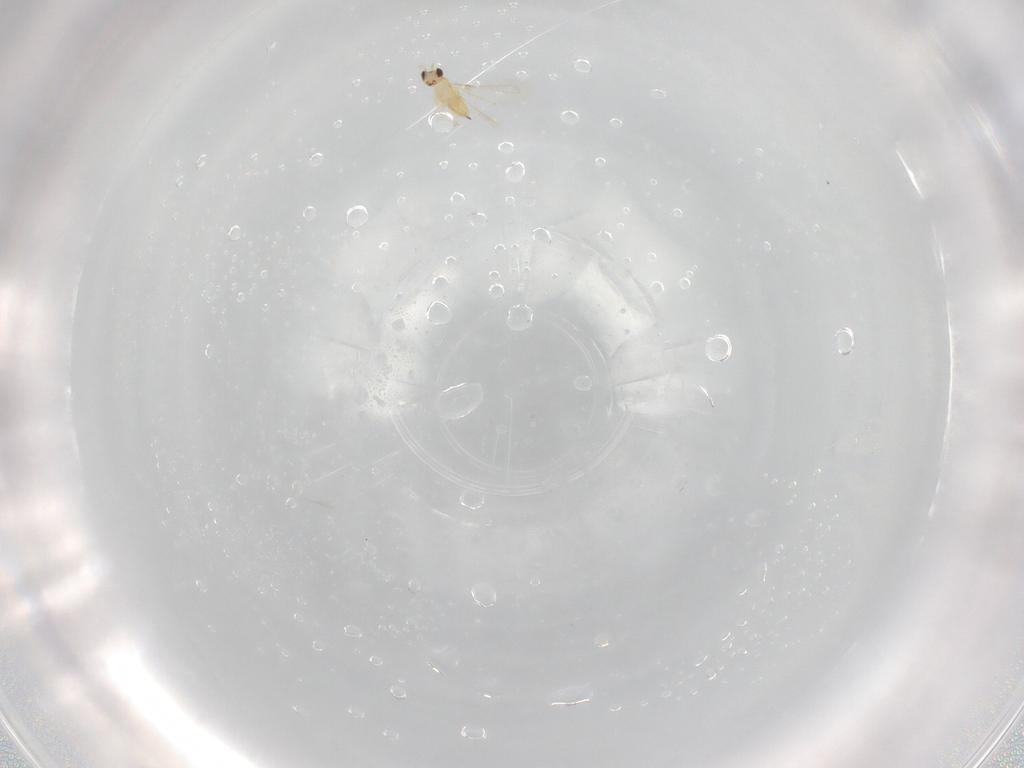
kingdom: Animalia
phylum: Arthropoda
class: Insecta
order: Hymenoptera
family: Mymaridae
